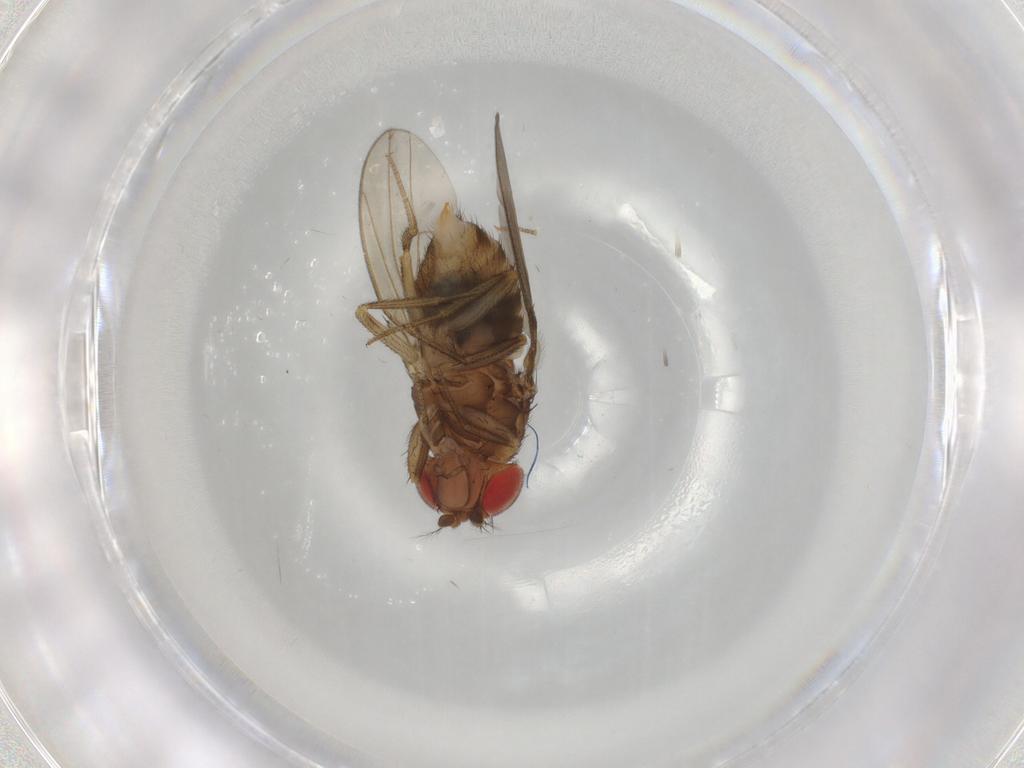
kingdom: Animalia
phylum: Arthropoda
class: Insecta
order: Diptera
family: Drosophilidae
